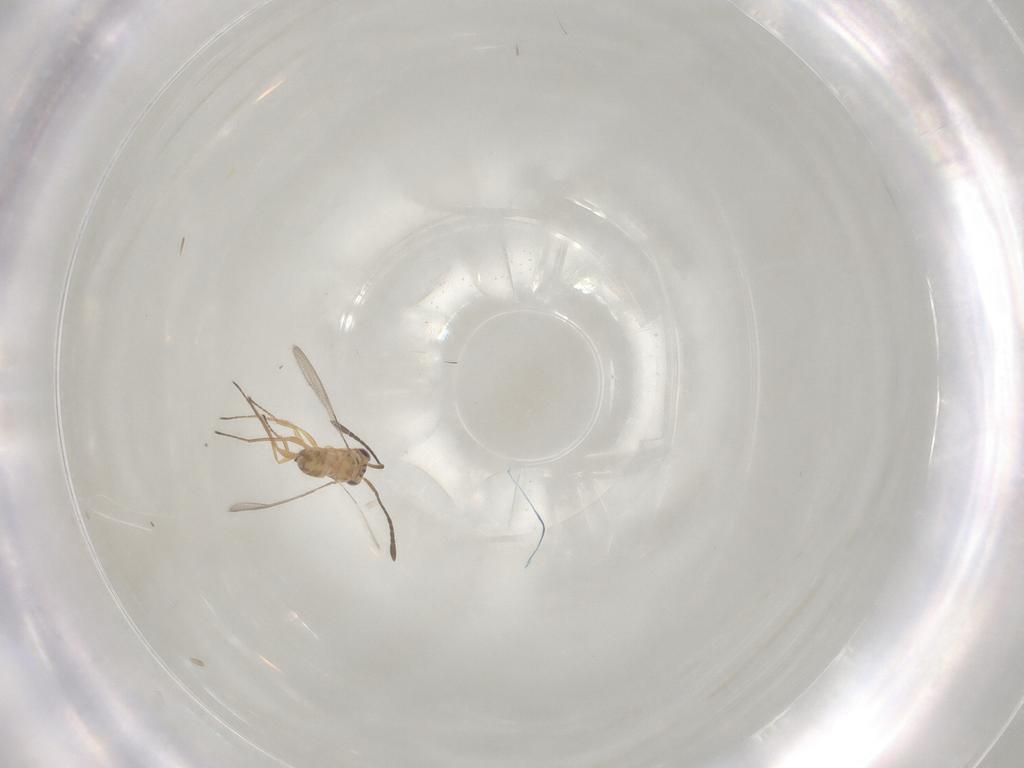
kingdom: Animalia
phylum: Arthropoda
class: Insecta
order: Hymenoptera
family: Mymaridae
